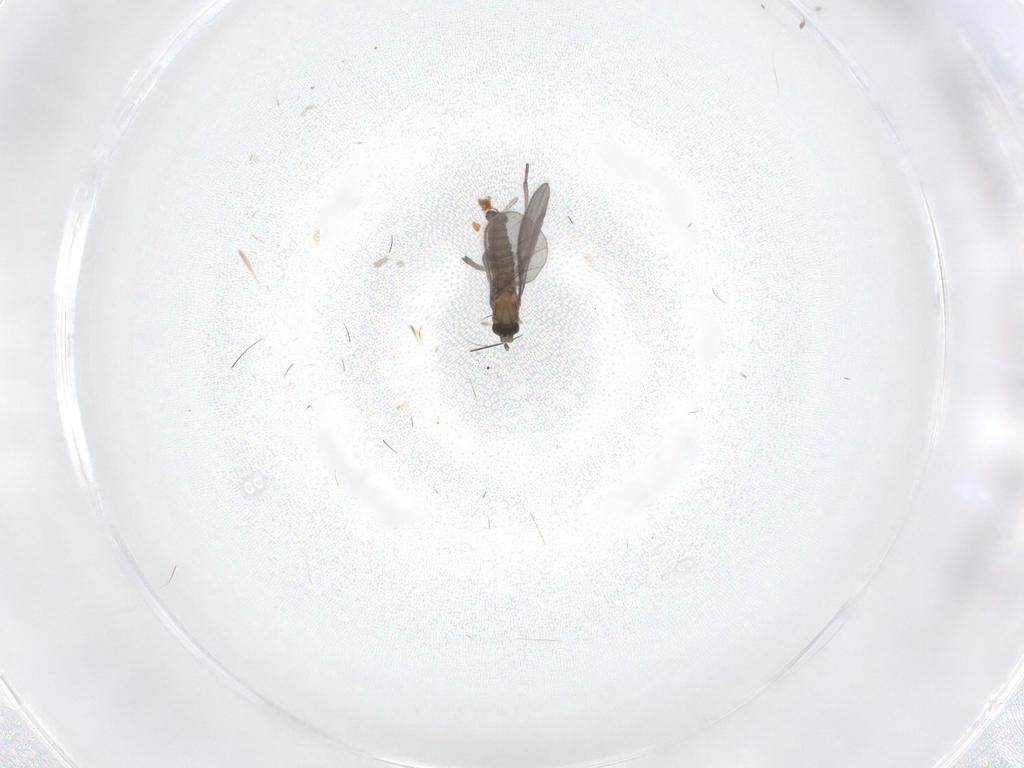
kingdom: Animalia
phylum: Arthropoda
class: Insecta
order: Diptera
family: Sciaridae
